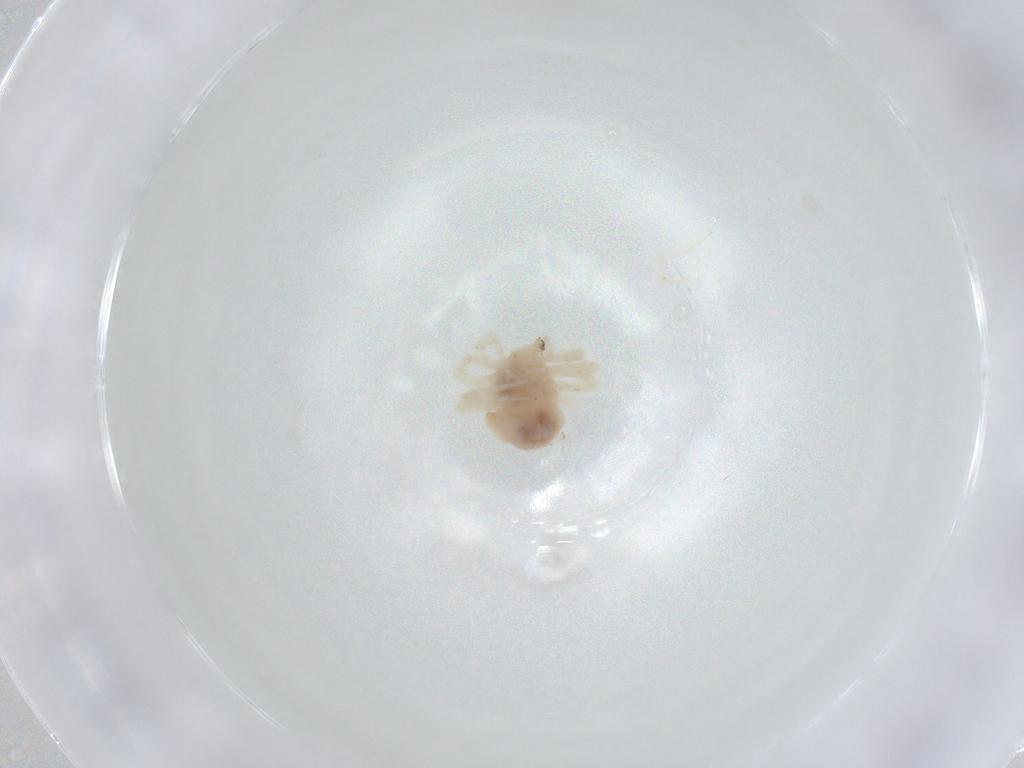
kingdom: Animalia
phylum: Arthropoda
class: Arachnida
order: Trombidiformes
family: Anystidae
